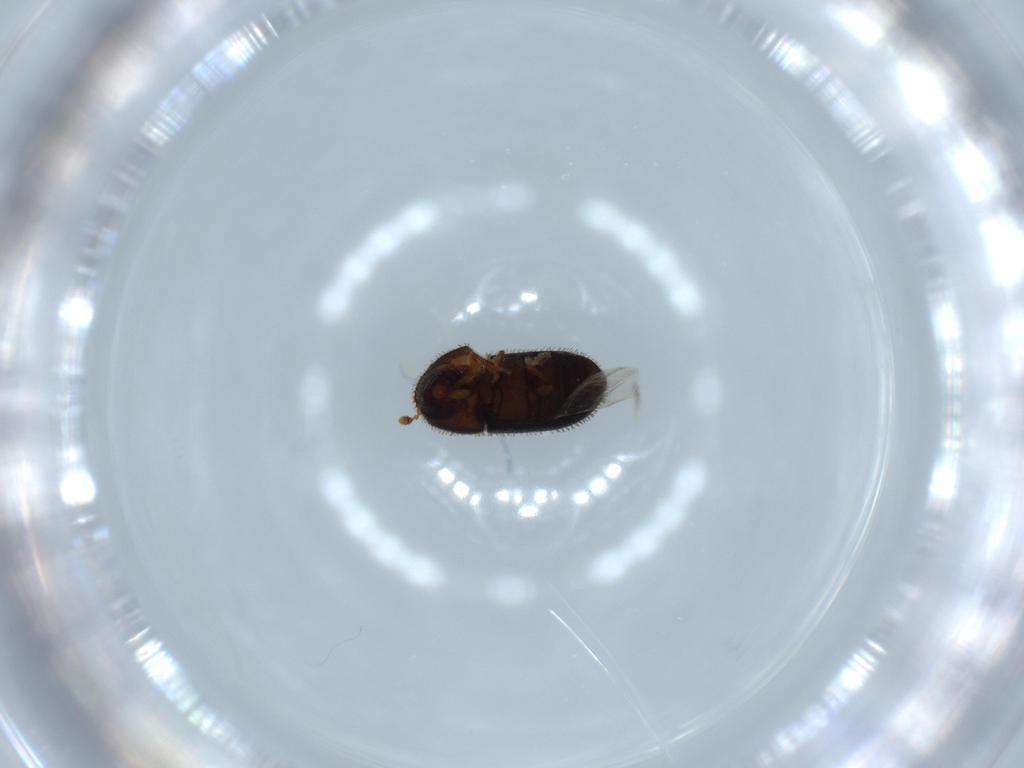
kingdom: Animalia
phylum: Arthropoda
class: Insecta
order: Coleoptera
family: Curculionidae
